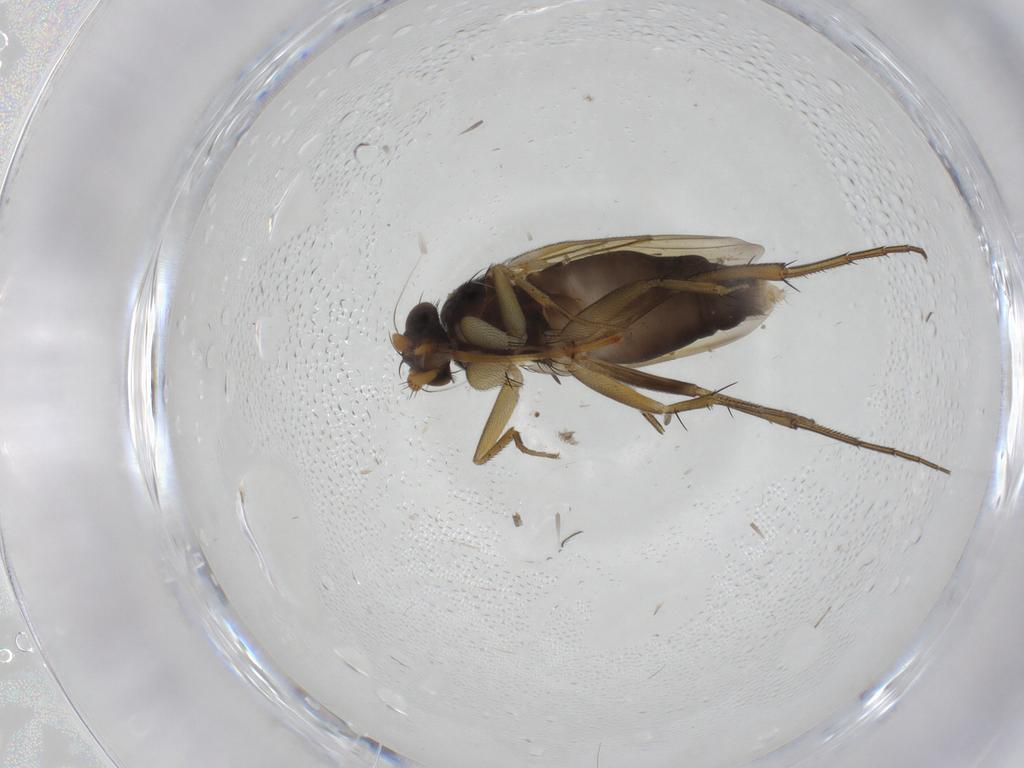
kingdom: Animalia
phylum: Arthropoda
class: Insecta
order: Diptera
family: Phoridae
